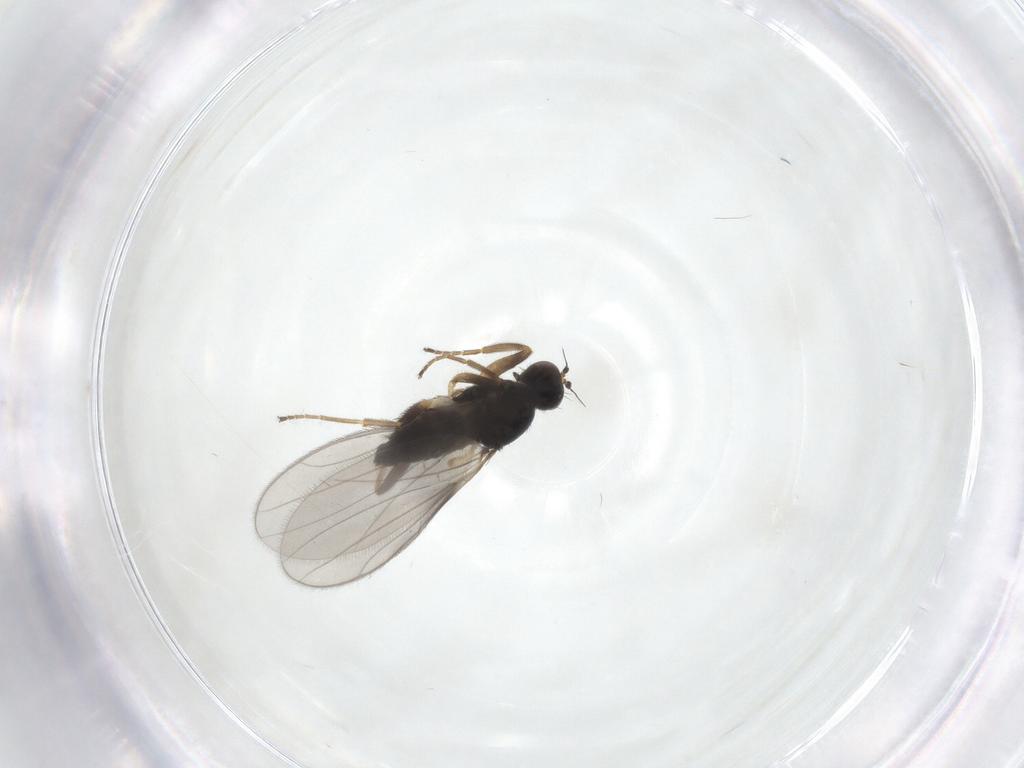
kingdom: Animalia
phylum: Arthropoda
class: Insecta
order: Diptera
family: Hybotidae
